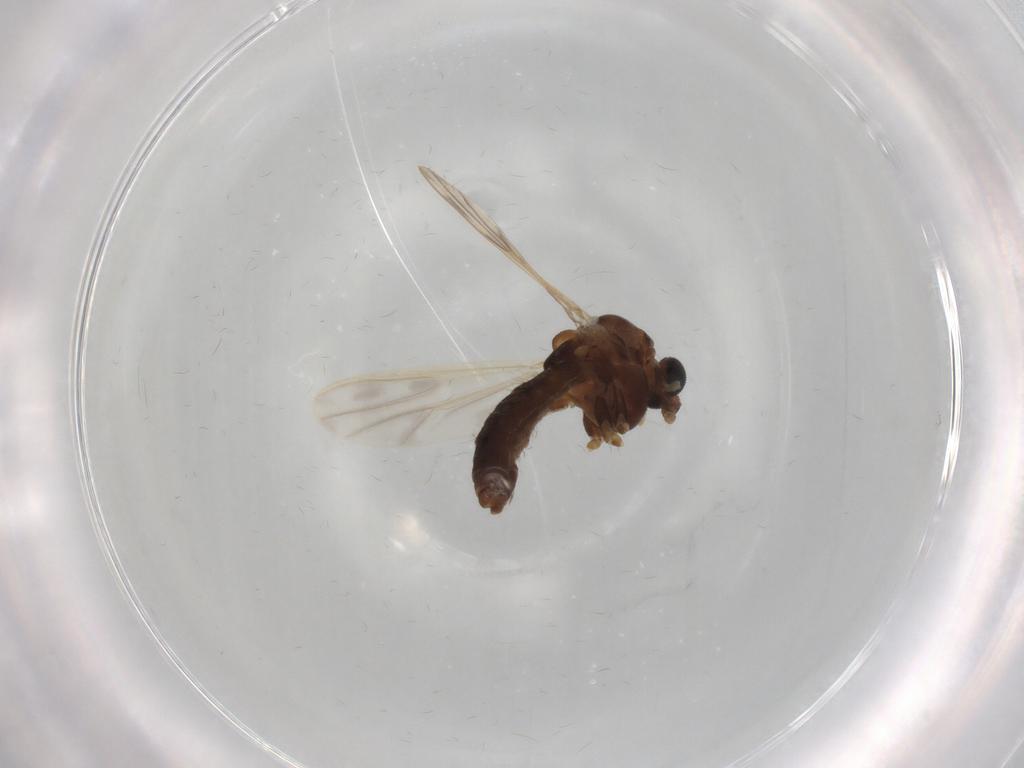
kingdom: Animalia
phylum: Arthropoda
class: Insecta
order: Diptera
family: Chironomidae
